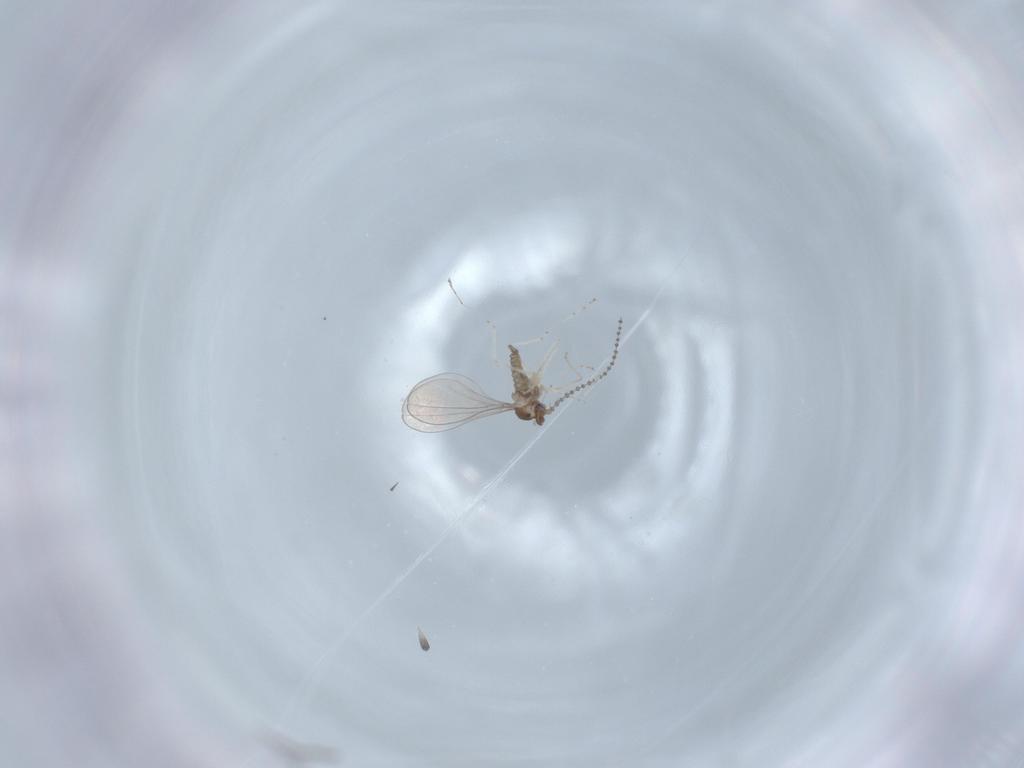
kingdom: Animalia
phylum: Arthropoda
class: Insecta
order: Diptera
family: Cecidomyiidae
